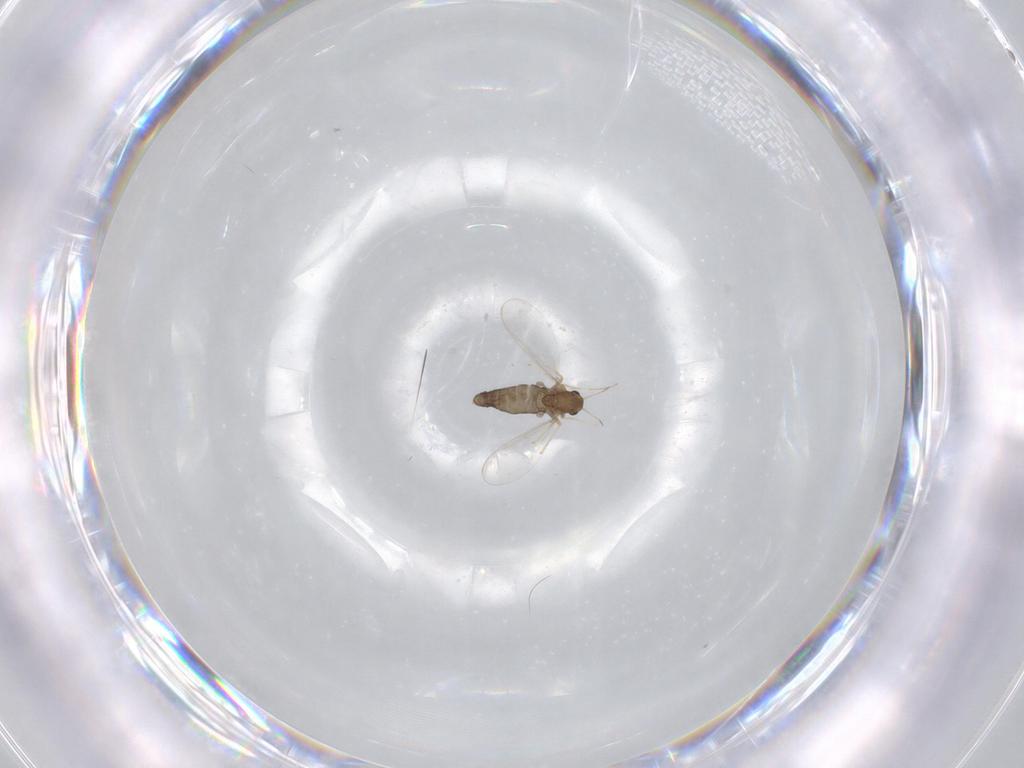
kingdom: Animalia
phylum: Arthropoda
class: Insecta
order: Diptera
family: Chironomidae
